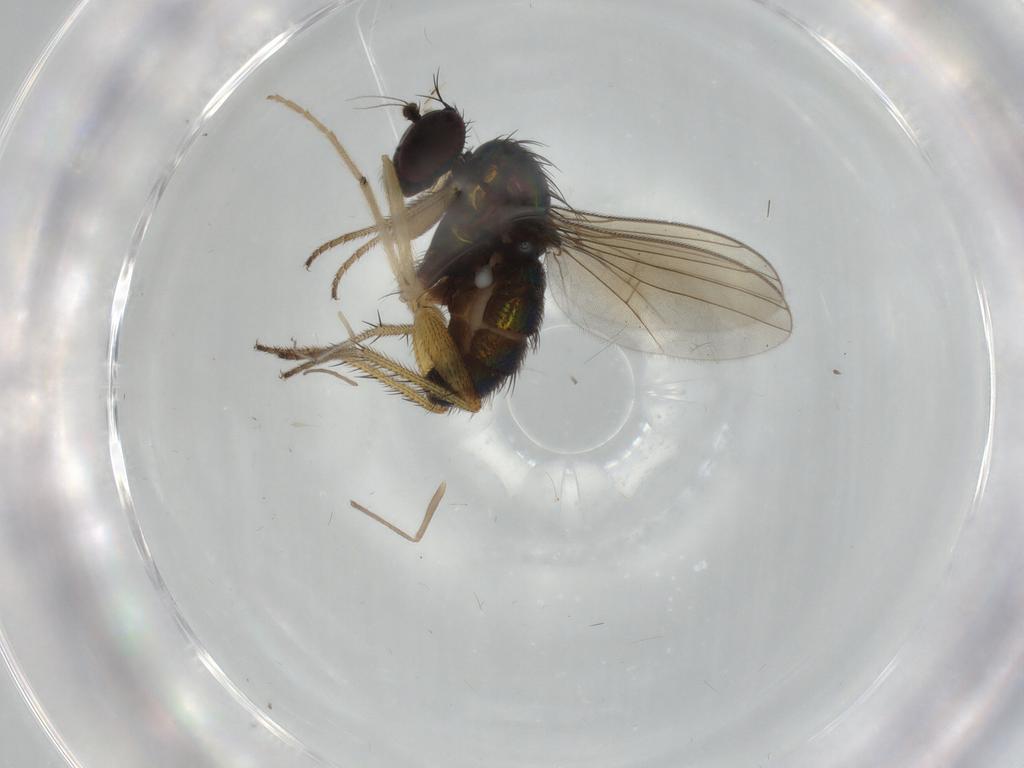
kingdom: Animalia
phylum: Arthropoda
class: Insecta
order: Diptera
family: Dolichopodidae
